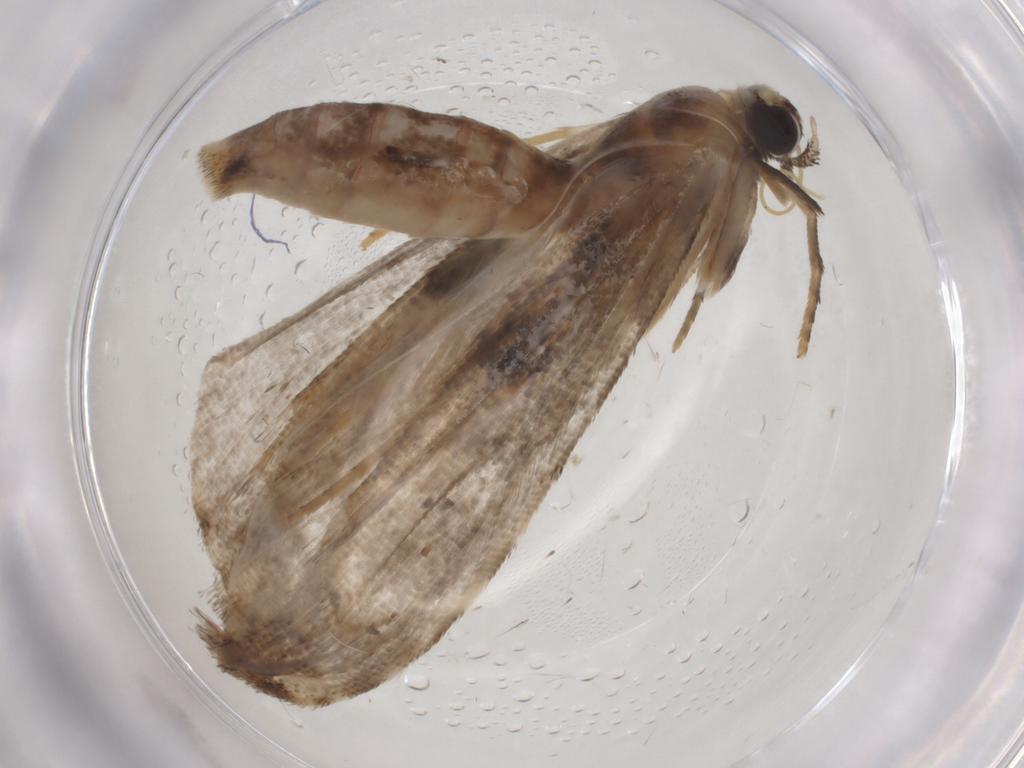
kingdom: Animalia
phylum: Arthropoda
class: Insecta
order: Lepidoptera
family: Noctuidae
